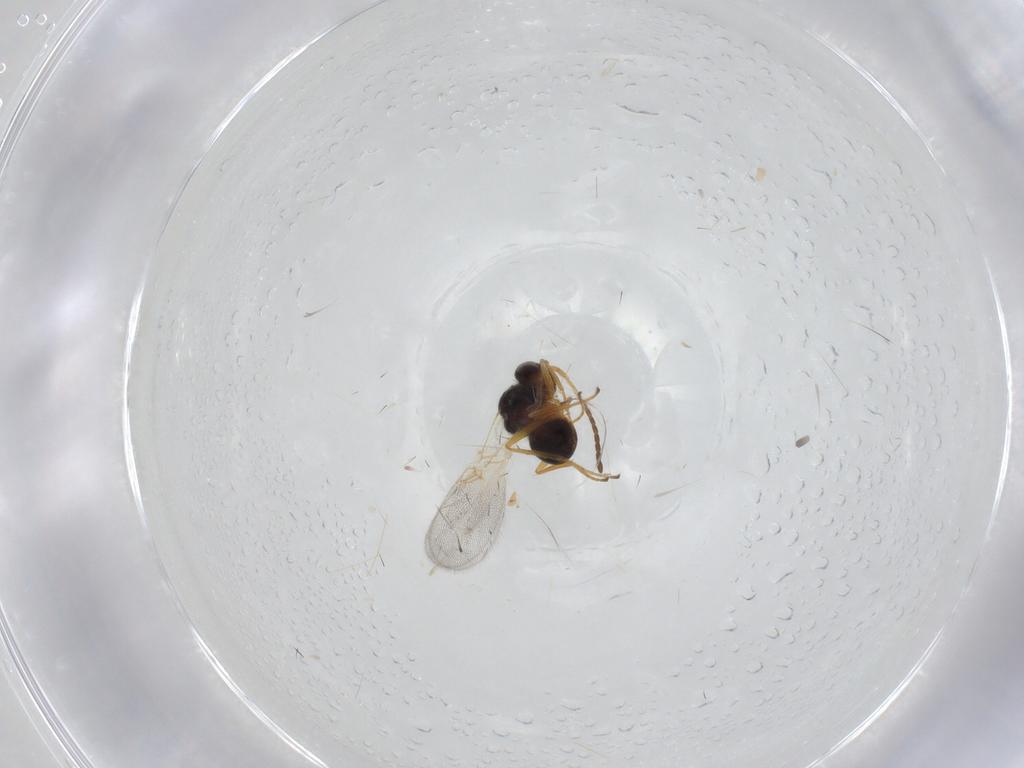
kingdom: Animalia
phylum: Arthropoda
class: Insecta
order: Hymenoptera
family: Figitidae
